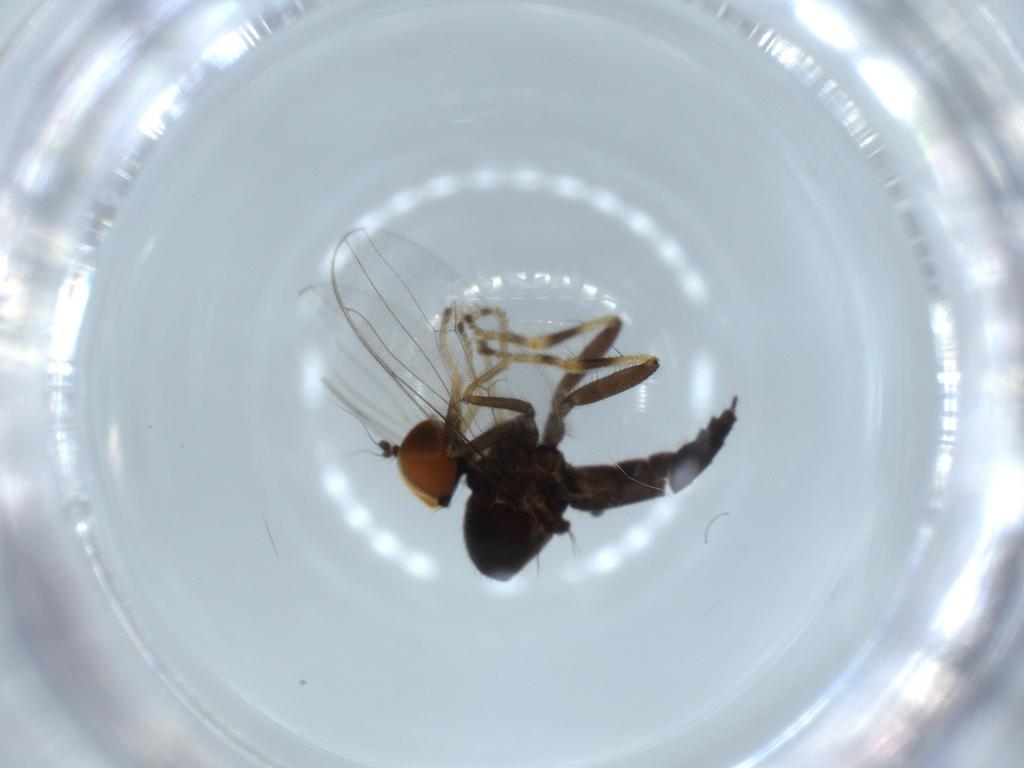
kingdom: Animalia
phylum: Arthropoda
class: Insecta
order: Diptera
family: Hybotidae
